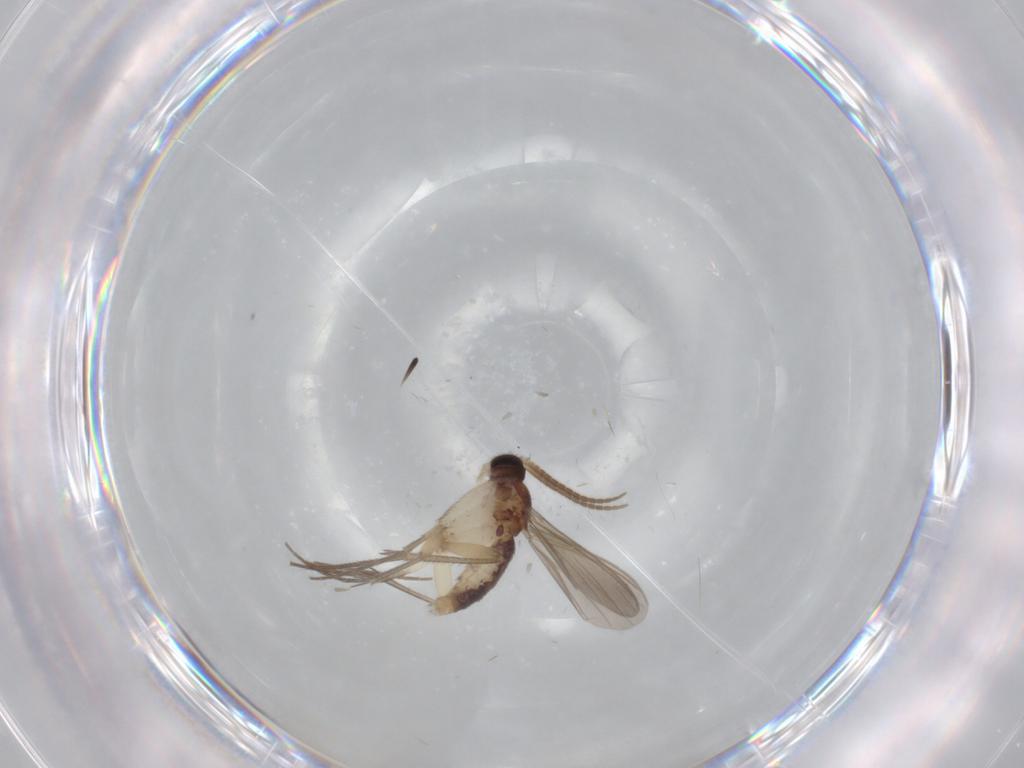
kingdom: Animalia
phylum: Arthropoda
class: Insecta
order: Diptera
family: Mycetophilidae
